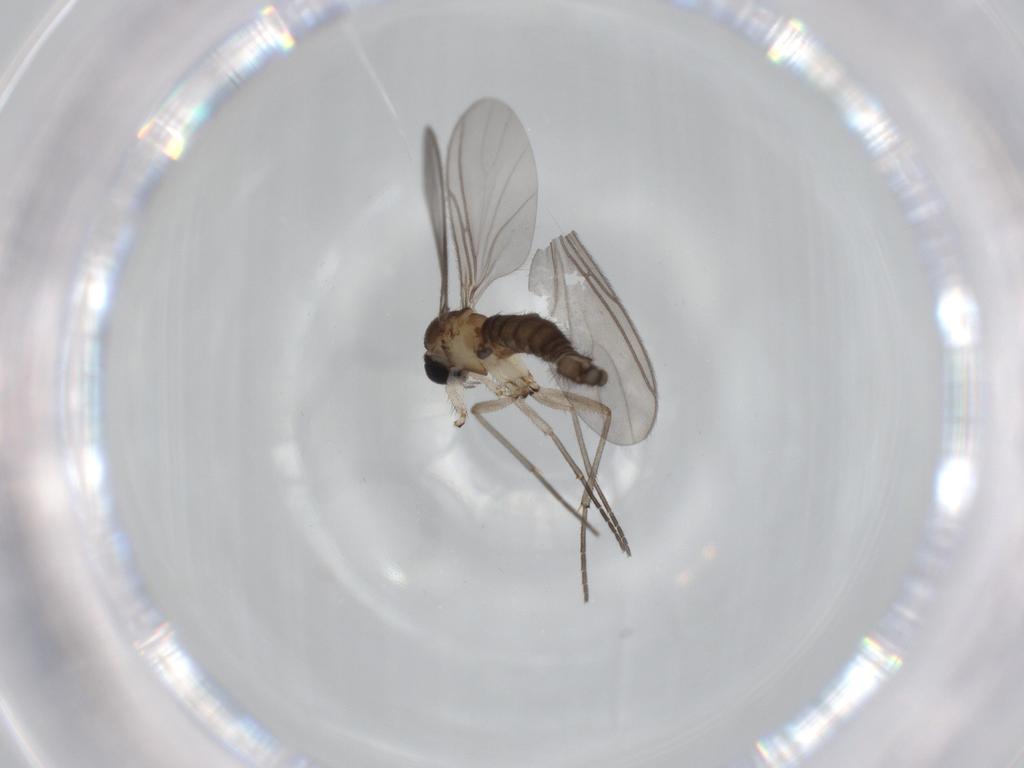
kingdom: Animalia
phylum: Arthropoda
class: Insecta
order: Diptera
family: Sciaridae
